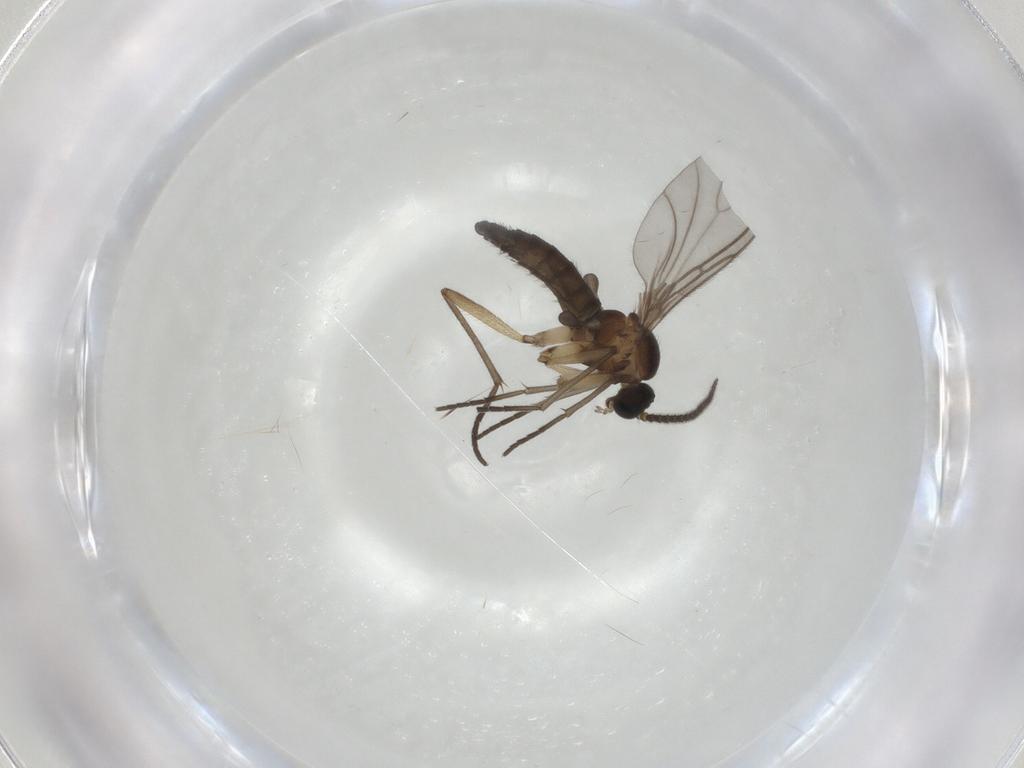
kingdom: Animalia
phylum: Arthropoda
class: Insecta
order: Diptera
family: Sciaridae
